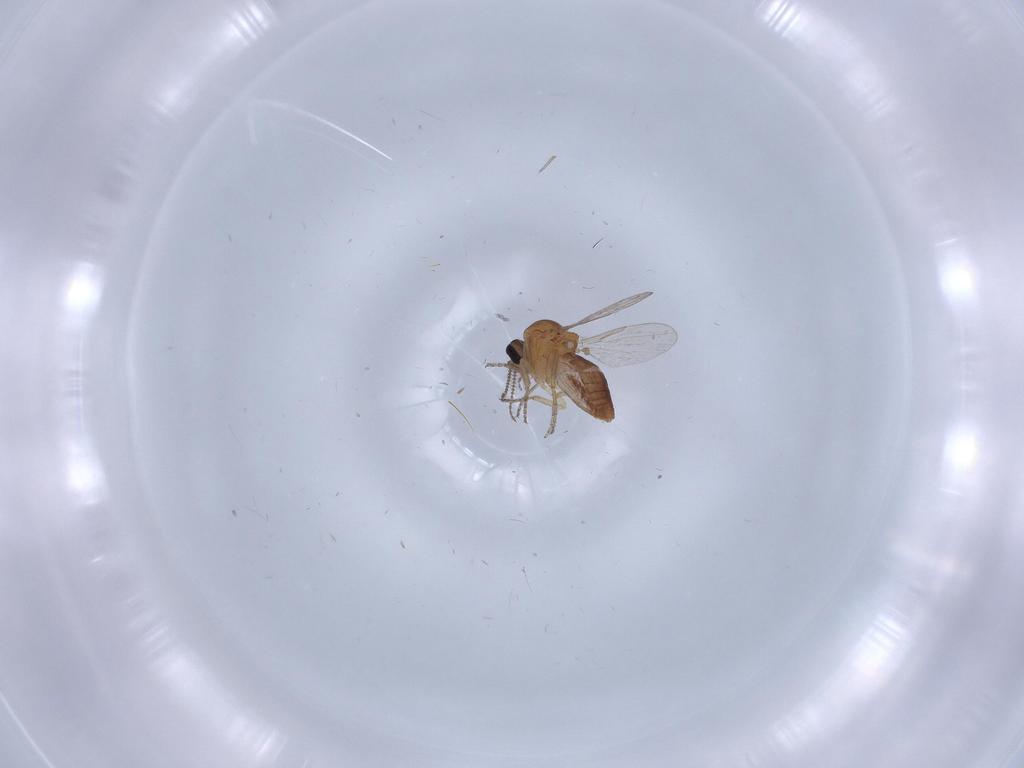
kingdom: Animalia
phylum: Arthropoda
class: Insecta
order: Diptera
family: Ceratopogonidae
